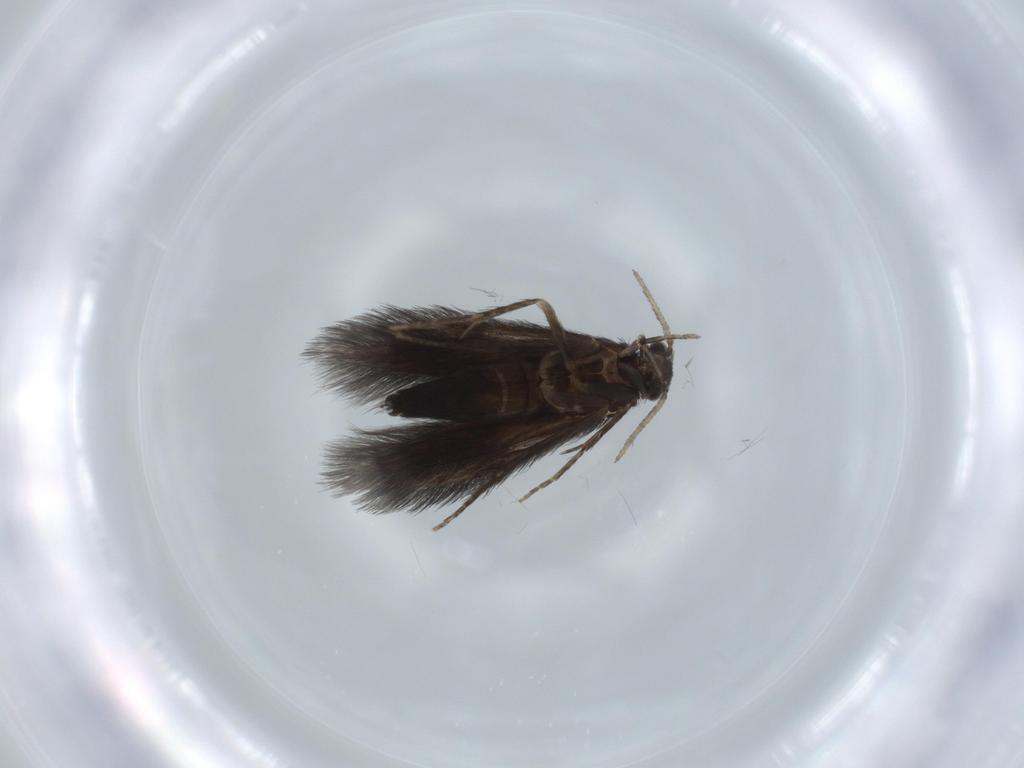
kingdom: Animalia
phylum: Arthropoda
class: Insecta
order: Trichoptera
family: Hydroptilidae
